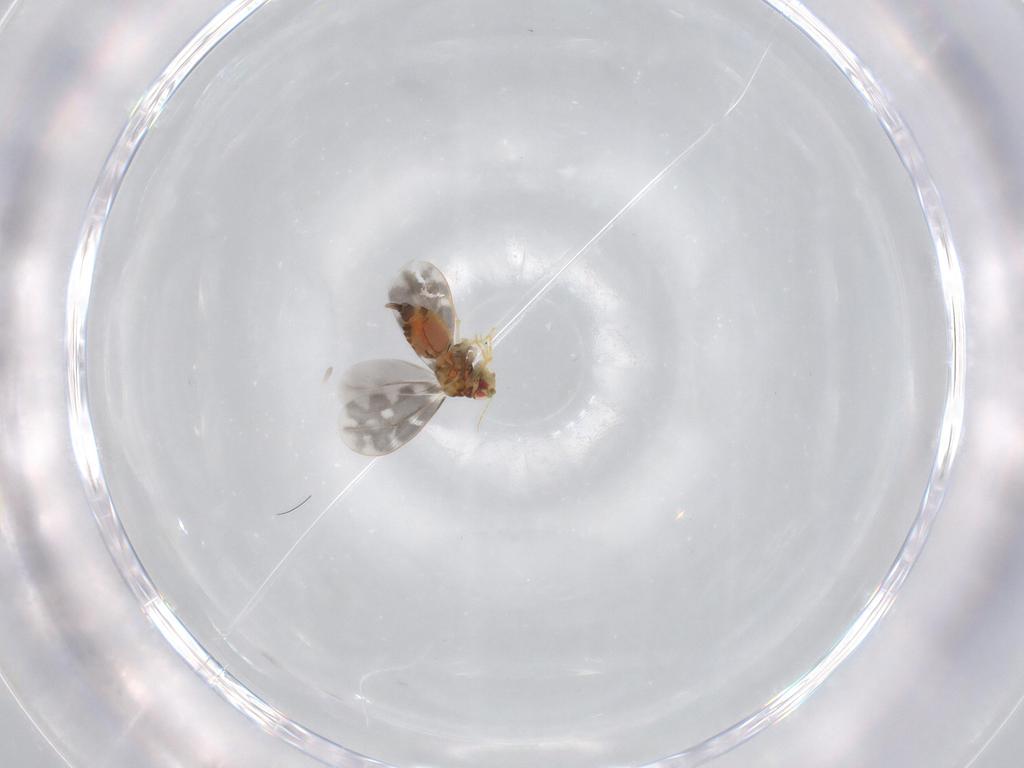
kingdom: Animalia
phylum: Arthropoda
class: Insecta
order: Hemiptera
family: Aleyrodidae
